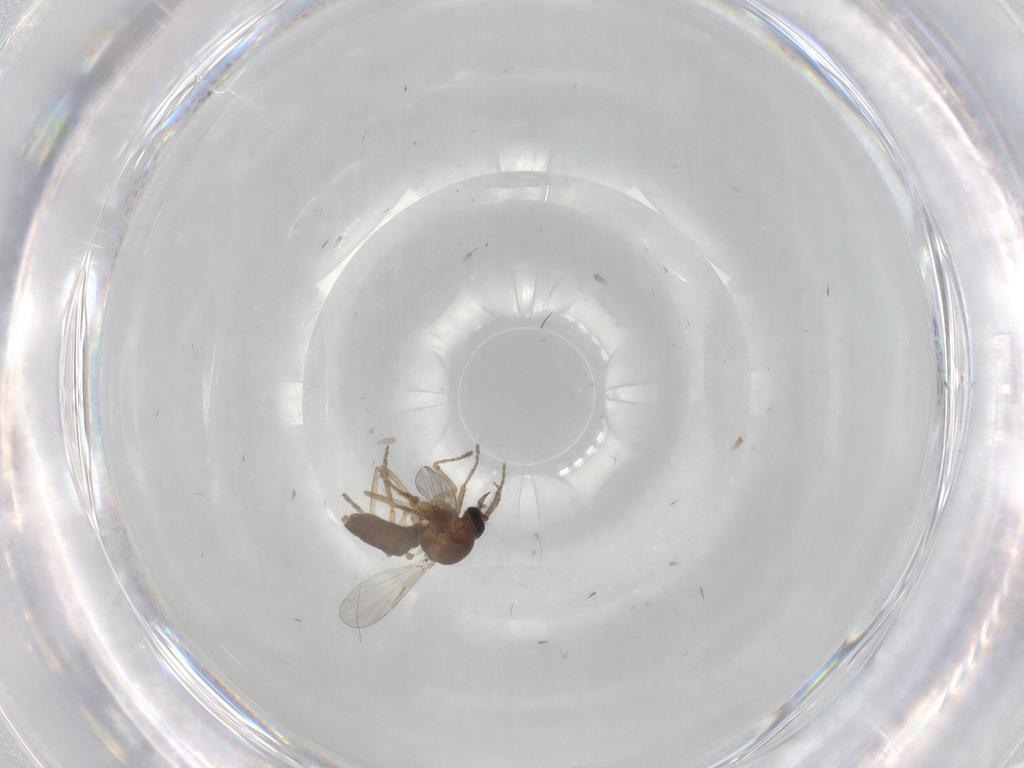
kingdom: Animalia
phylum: Arthropoda
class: Insecta
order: Diptera
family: Ceratopogonidae
